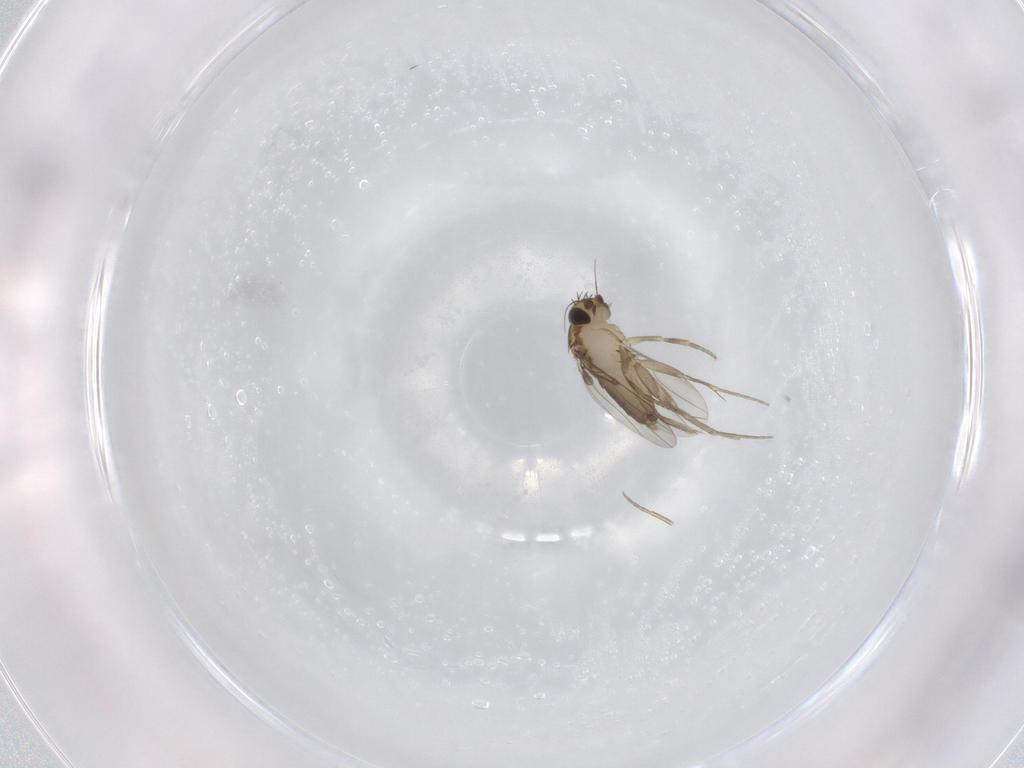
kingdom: Animalia
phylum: Arthropoda
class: Insecta
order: Diptera
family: Phoridae
